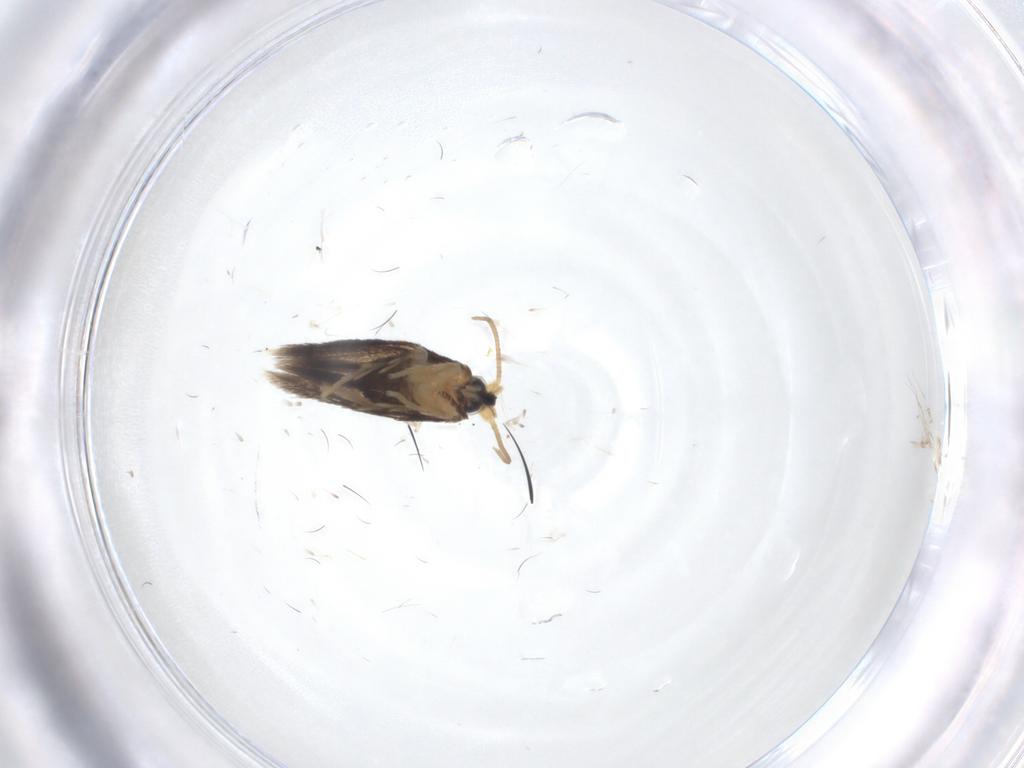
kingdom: Animalia
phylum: Arthropoda
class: Insecta
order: Lepidoptera
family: Nepticulidae
